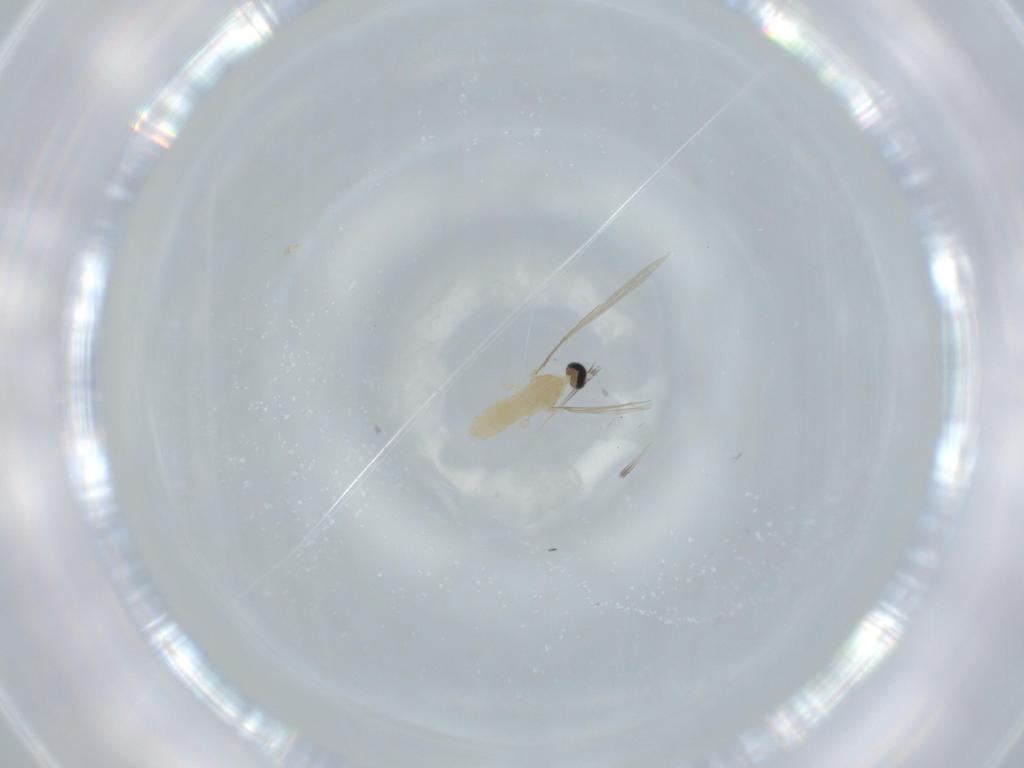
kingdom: Animalia
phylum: Arthropoda
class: Insecta
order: Diptera
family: Cecidomyiidae
